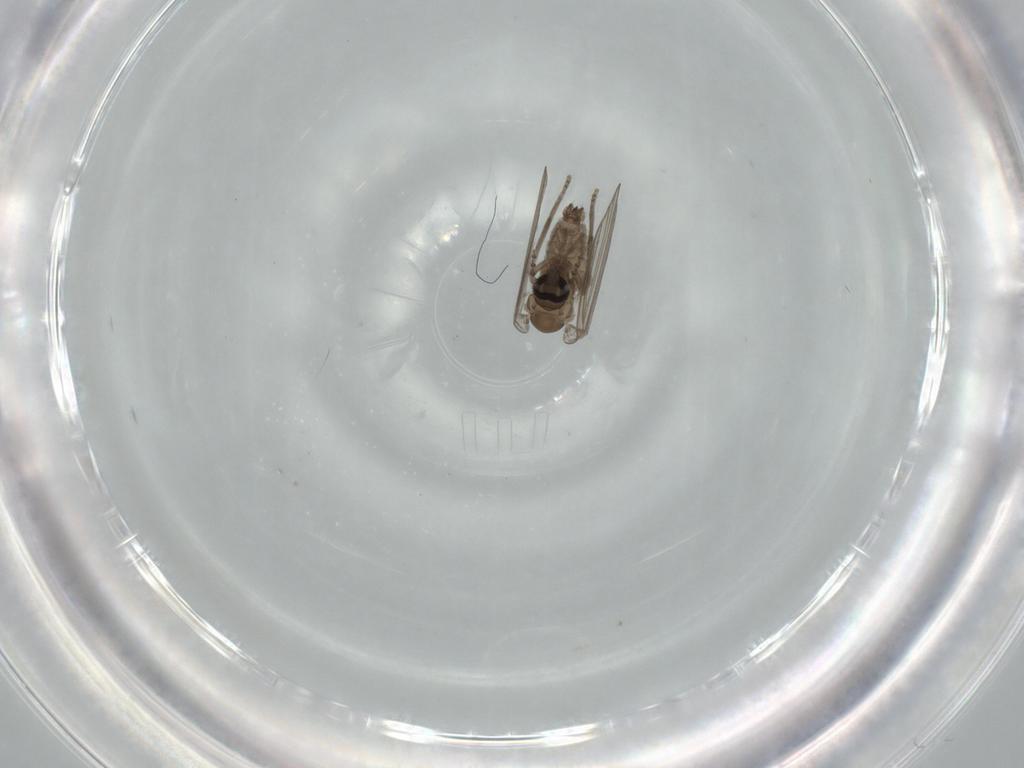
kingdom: Animalia
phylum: Arthropoda
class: Insecta
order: Diptera
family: Psychodidae
